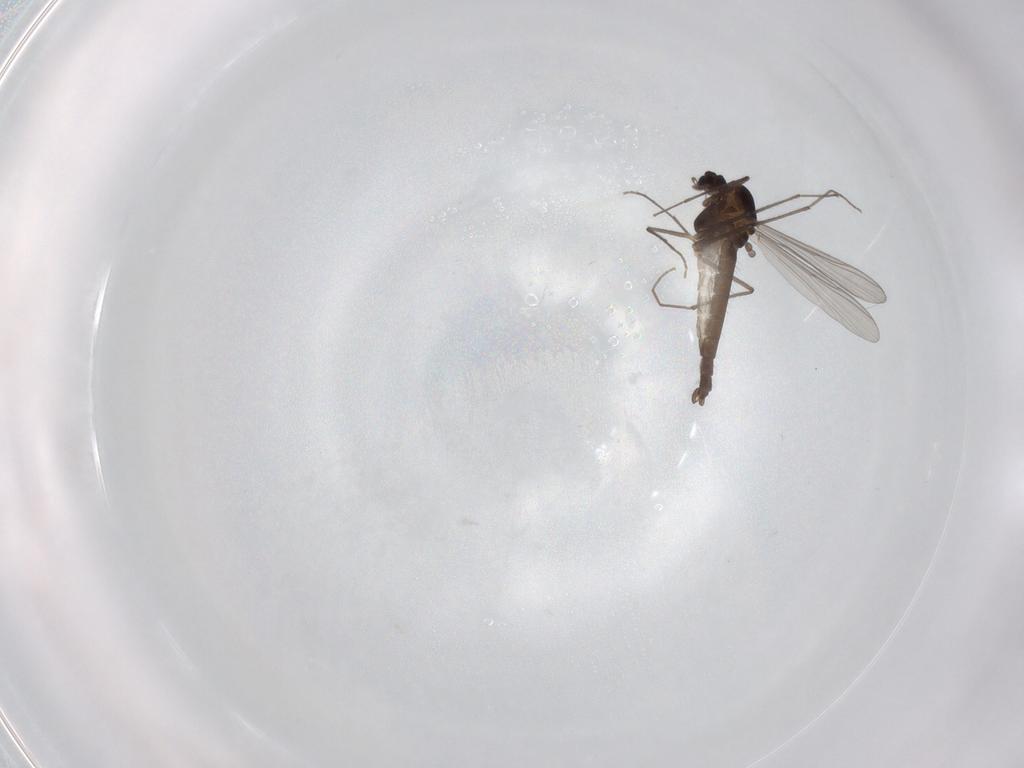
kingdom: Animalia
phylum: Arthropoda
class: Insecta
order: Diptera
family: Chironomidae
